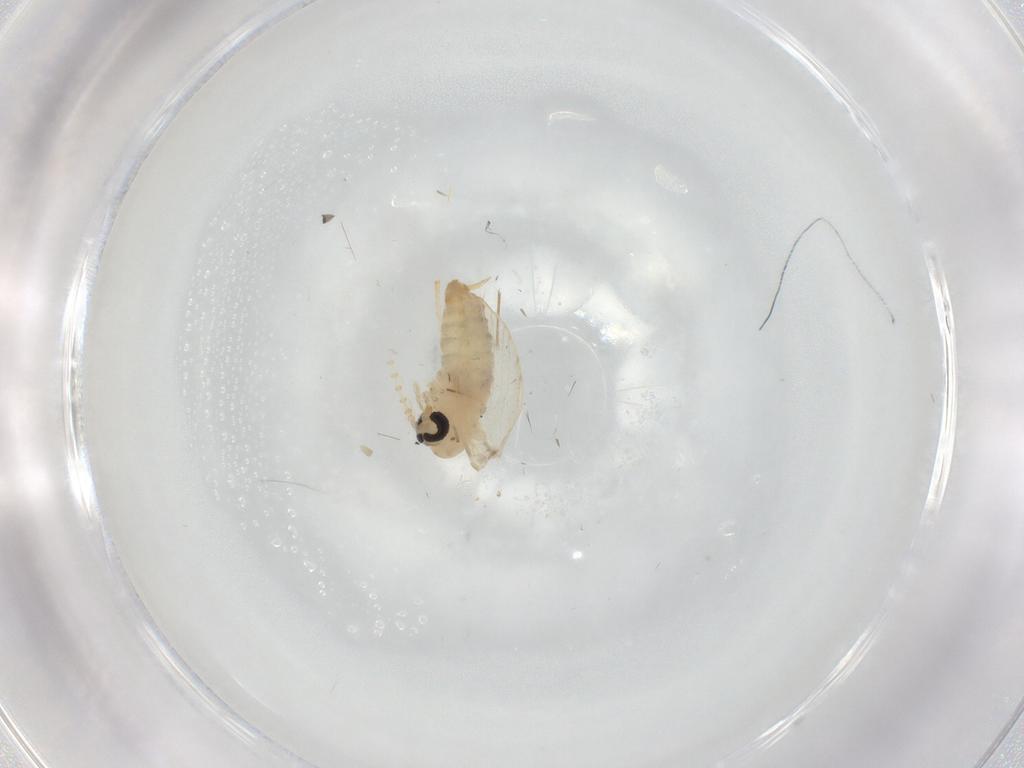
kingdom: Animalia
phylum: Arthropoda
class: Insecta
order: Diptera
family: Psychodidae
